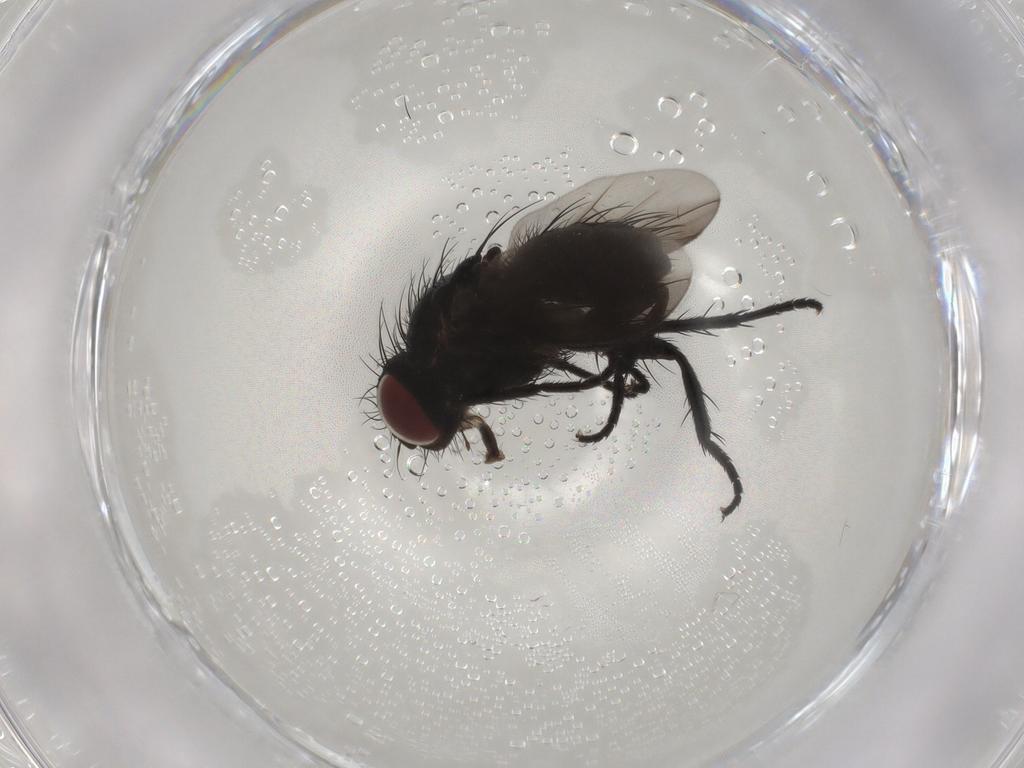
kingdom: Animalia
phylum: Arthropoda
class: Insecta
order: Diptera
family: Tachinidae
